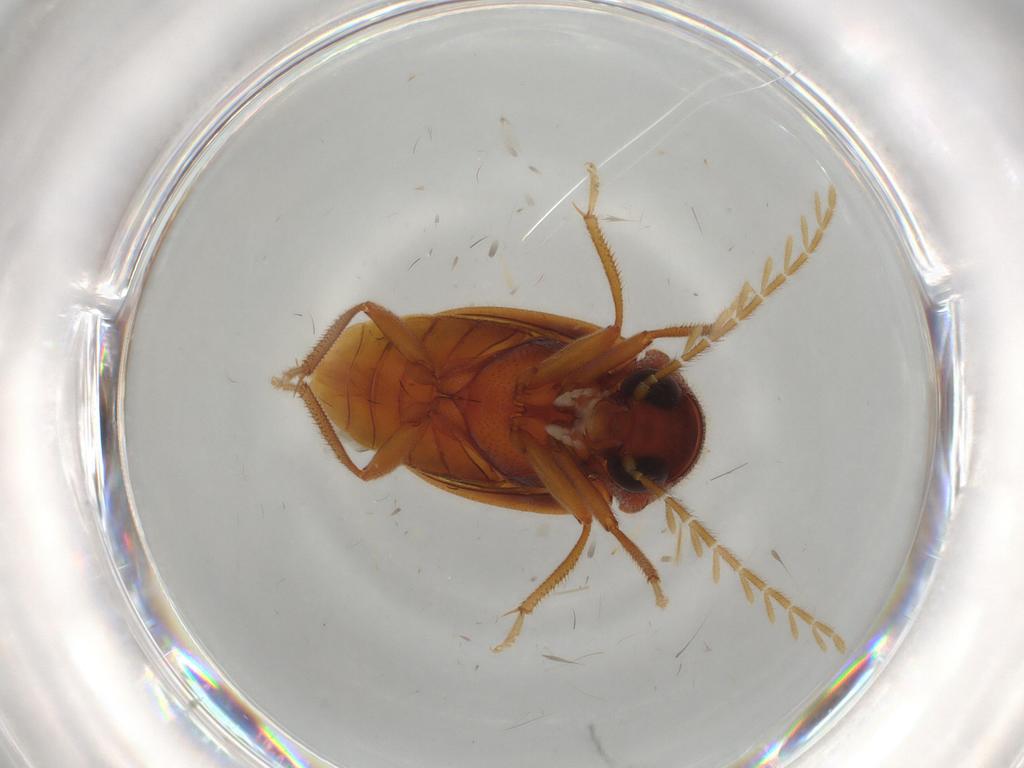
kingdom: Animalia
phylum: Arthropoda
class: Insecta
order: Coleoptera
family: Ptilodactylidae
